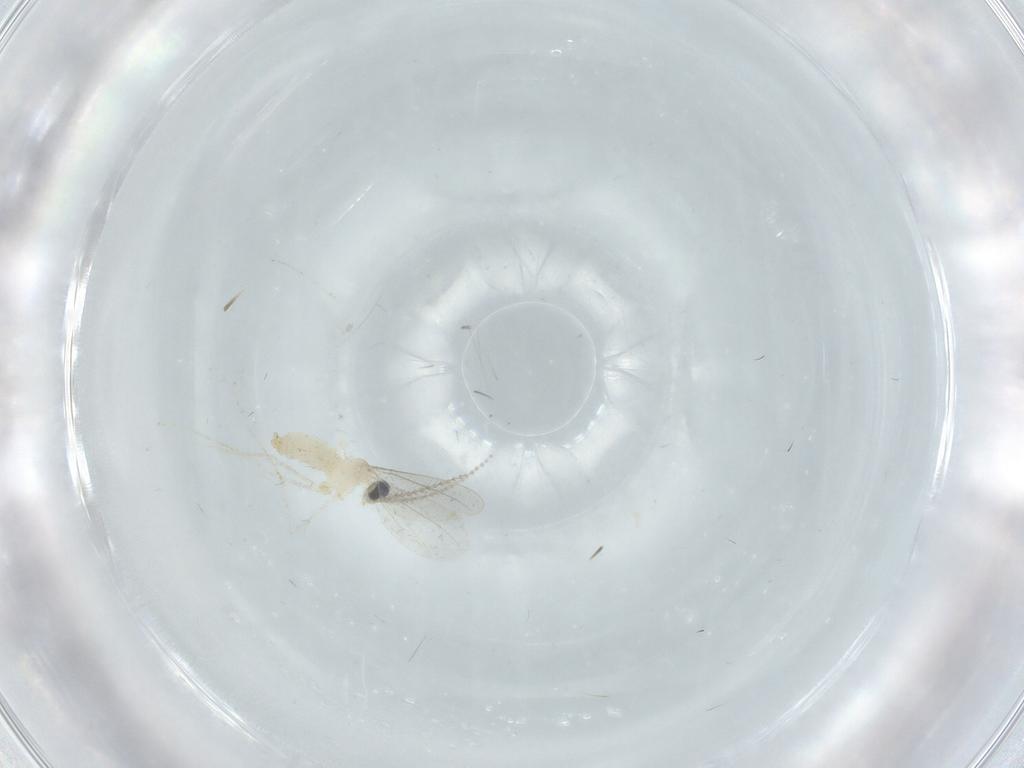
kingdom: Animalia
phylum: Arthropoda
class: Insecta
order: Diptera
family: Cecidomyiidae
